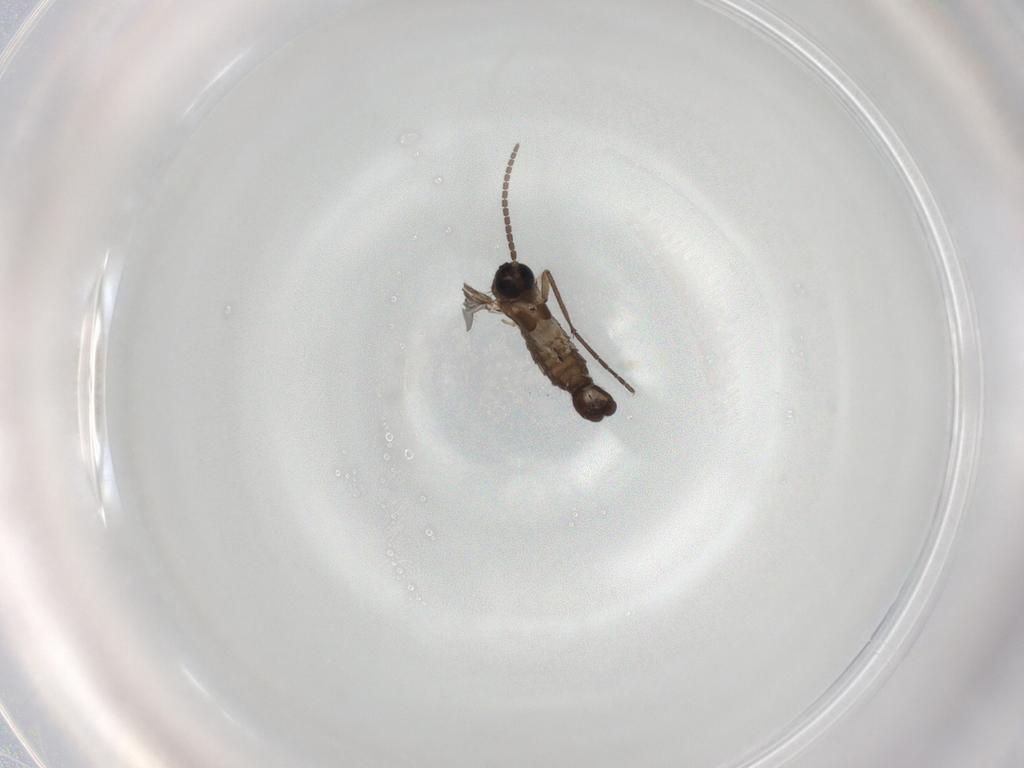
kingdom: Animalia
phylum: Arthropoda
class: Insecta
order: Diptera
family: Sciaridae
